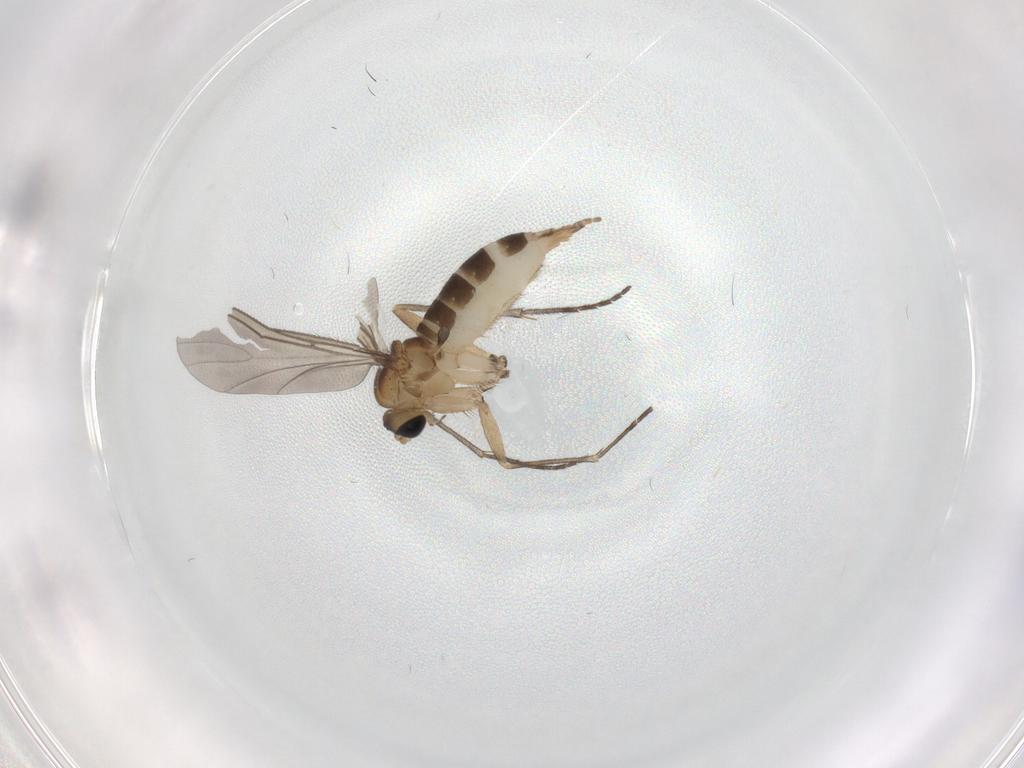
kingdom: Animalia
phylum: Arthropoda
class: Insecta
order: Diptera
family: Sciaridae
